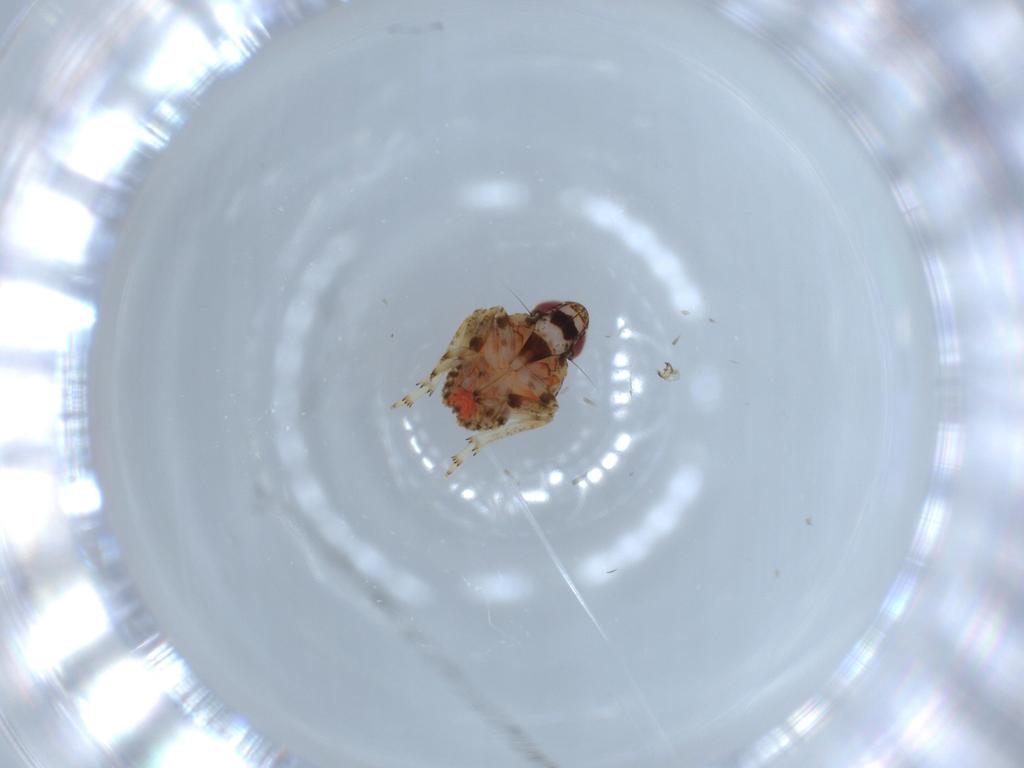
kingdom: Animalia
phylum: Arthropoda
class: Insecta
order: Hemiptera
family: Issidae
